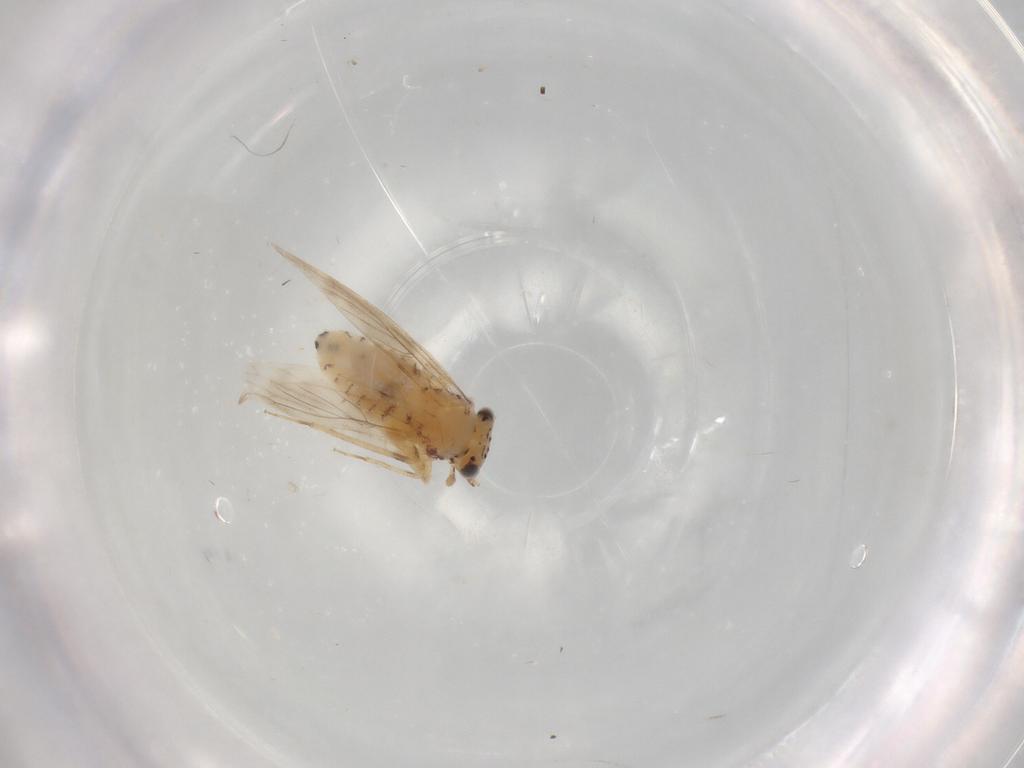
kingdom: Animalia
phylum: Arthropoda
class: Insecta
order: Psocodea
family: Lepidopsocidae
